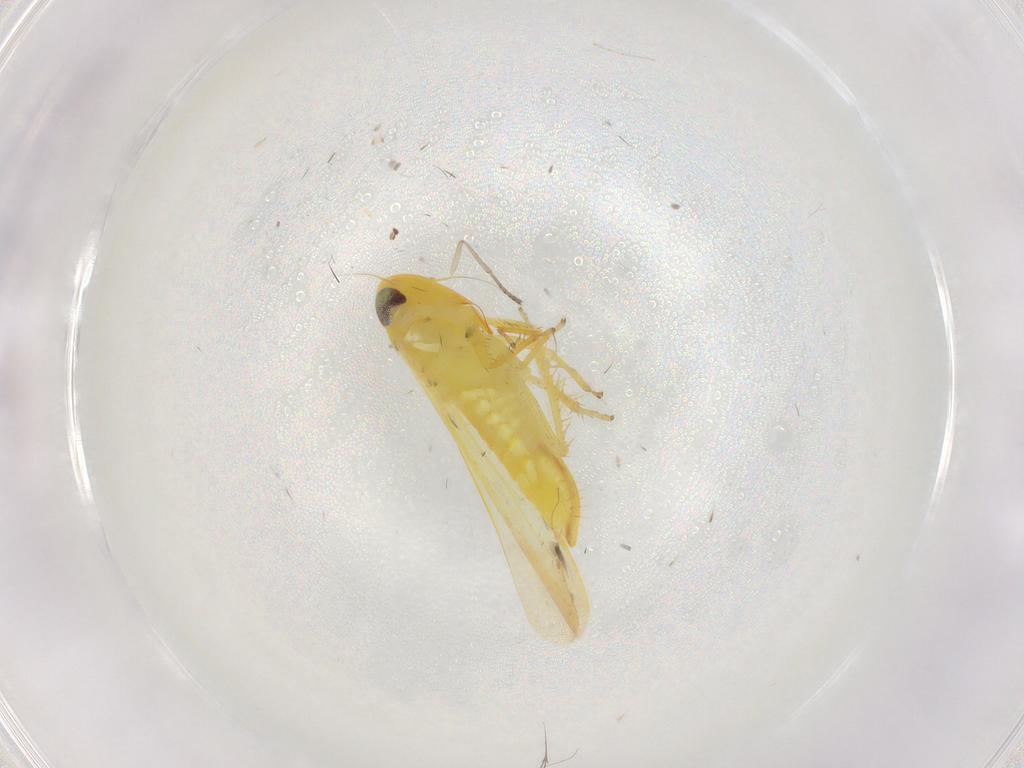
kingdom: Animalia
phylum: Arthropoda
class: Insecta
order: Hemiptera
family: Cicadellidae
